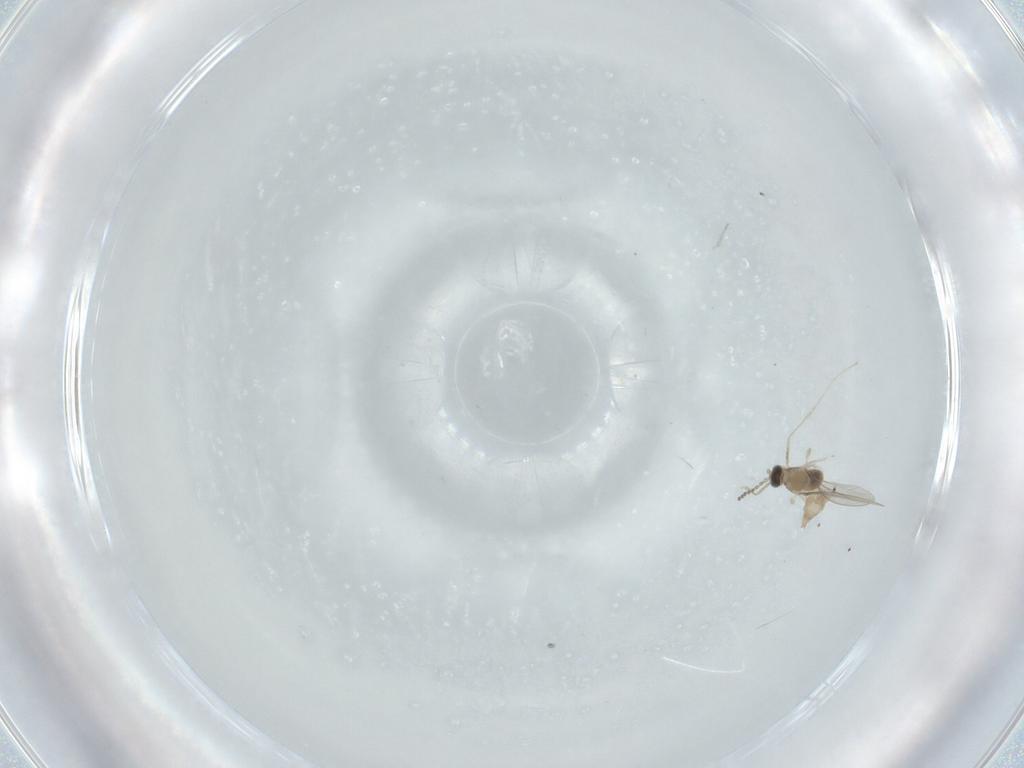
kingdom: Animalia
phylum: Arthropoda
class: Insecta
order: Diptera
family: Cecidomyiidae
